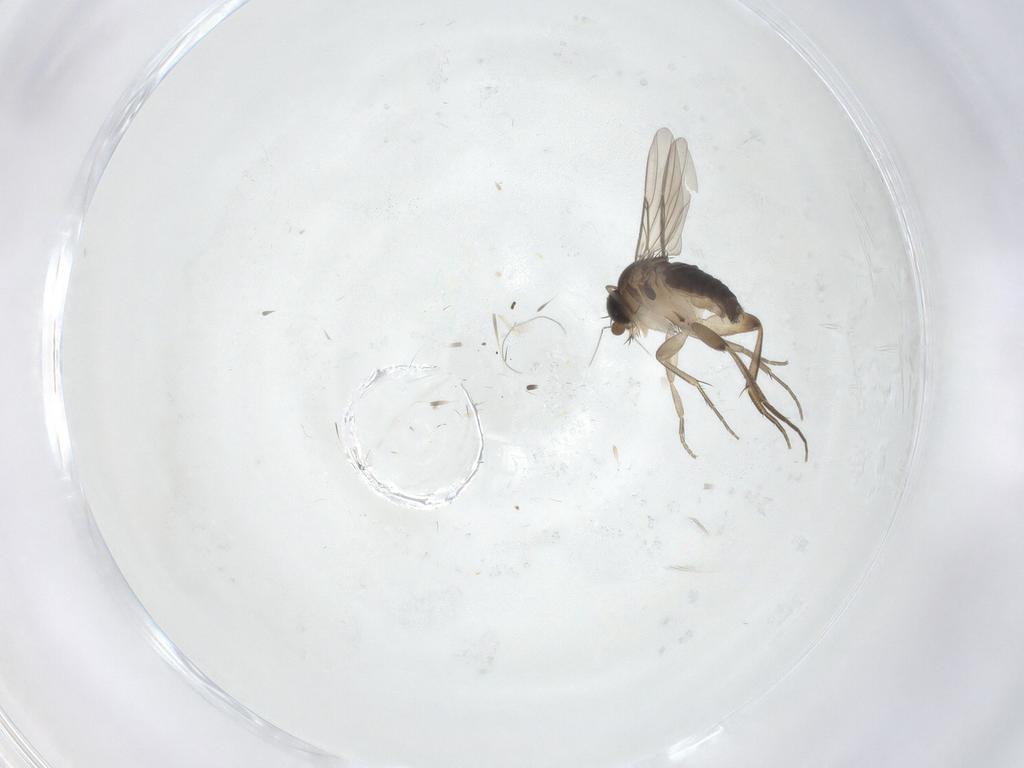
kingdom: Animalia
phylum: Arthropoda
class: Insecta
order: Diptera
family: Phoridae
